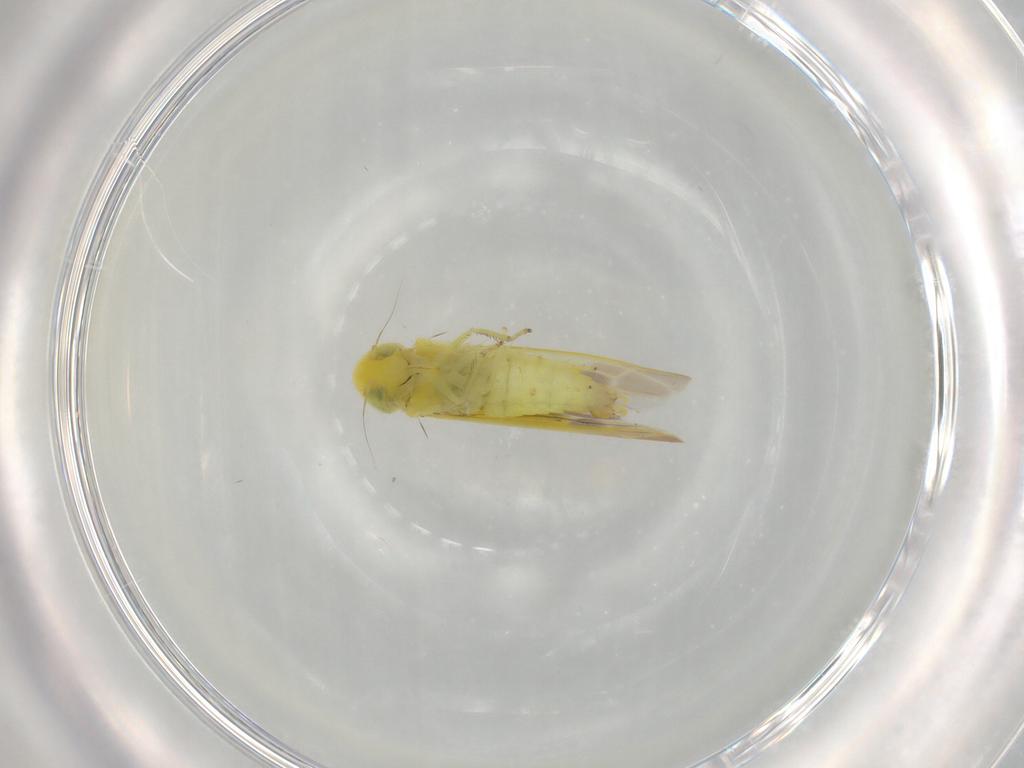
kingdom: Animalia
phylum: Arthropoda
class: Insecta
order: Hemiptera
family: Cicadellidae
